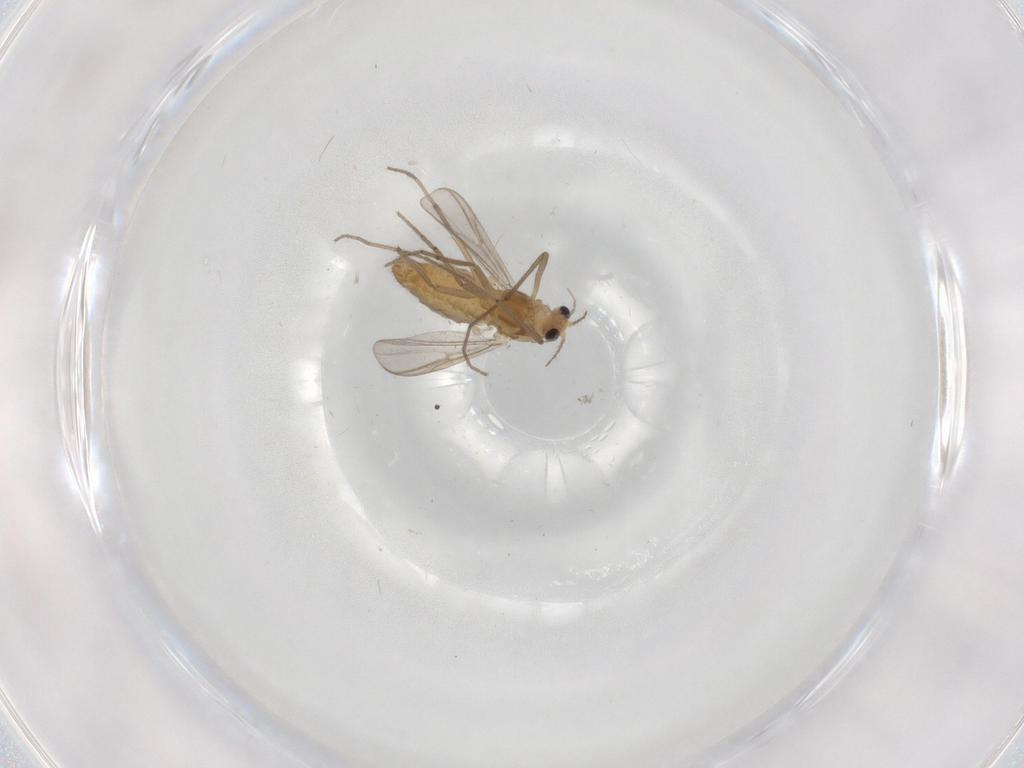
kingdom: Animalia
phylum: Arthropoda
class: Insecta
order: Diptera
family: Chironomidae
